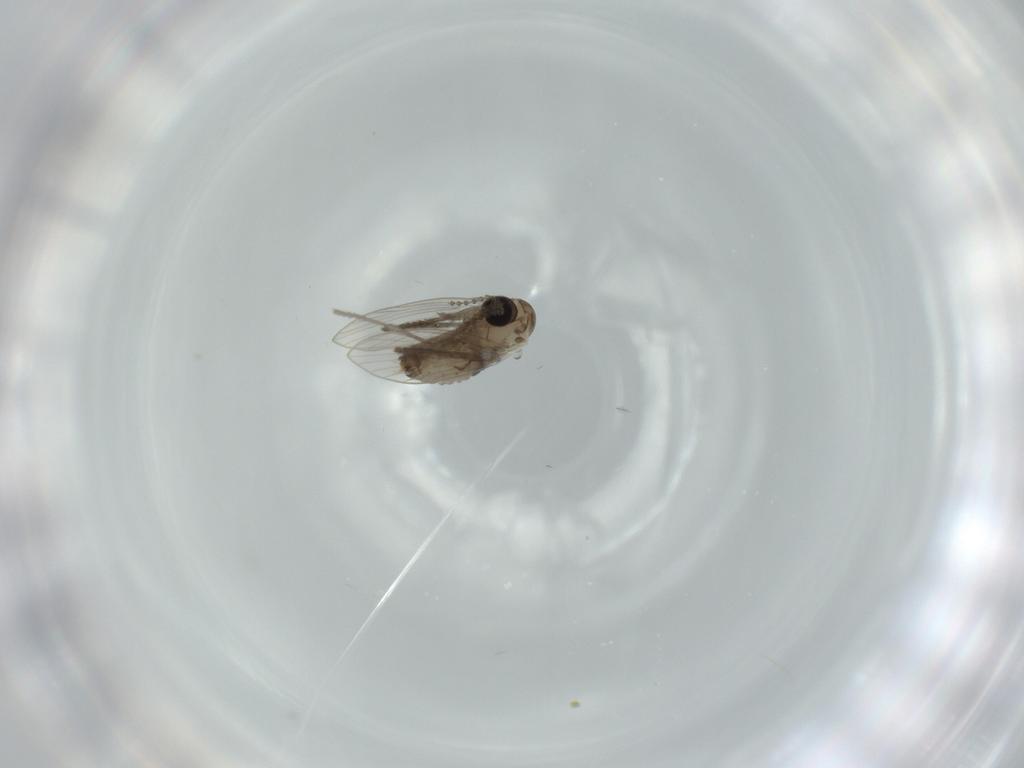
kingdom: Animalia
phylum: Arthropoda
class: Insecta
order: Diptera
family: Psychodidae
